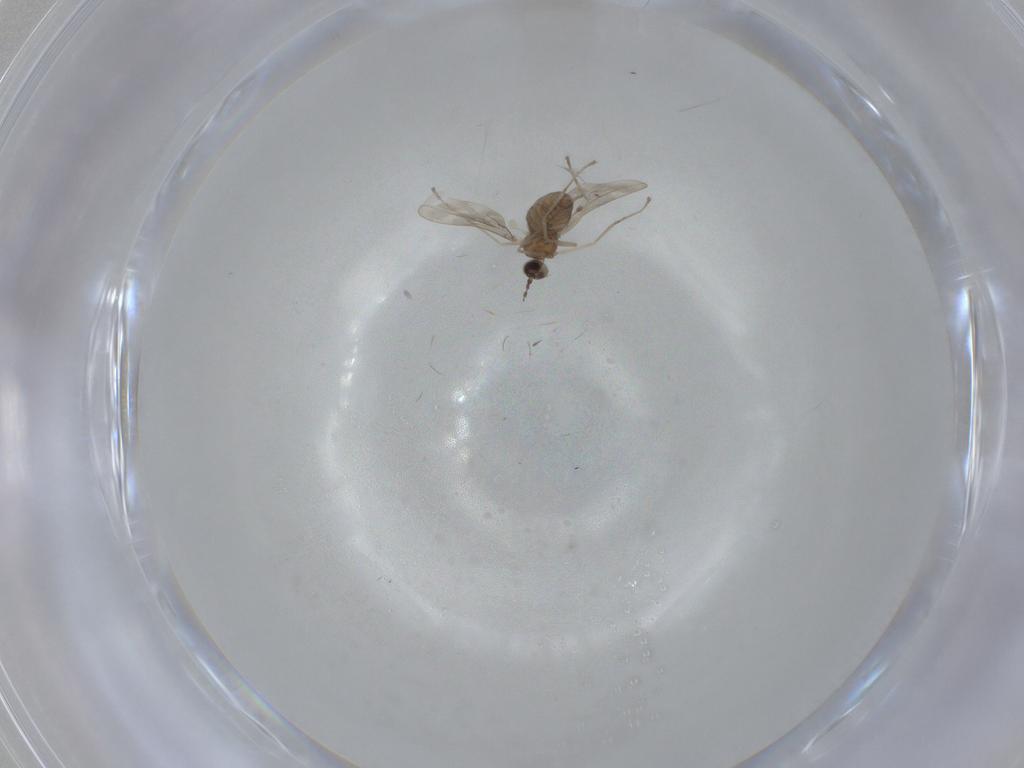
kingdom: Animalia
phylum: Arthropoda
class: Insecta
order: Diptera
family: Cecidomyiidae
